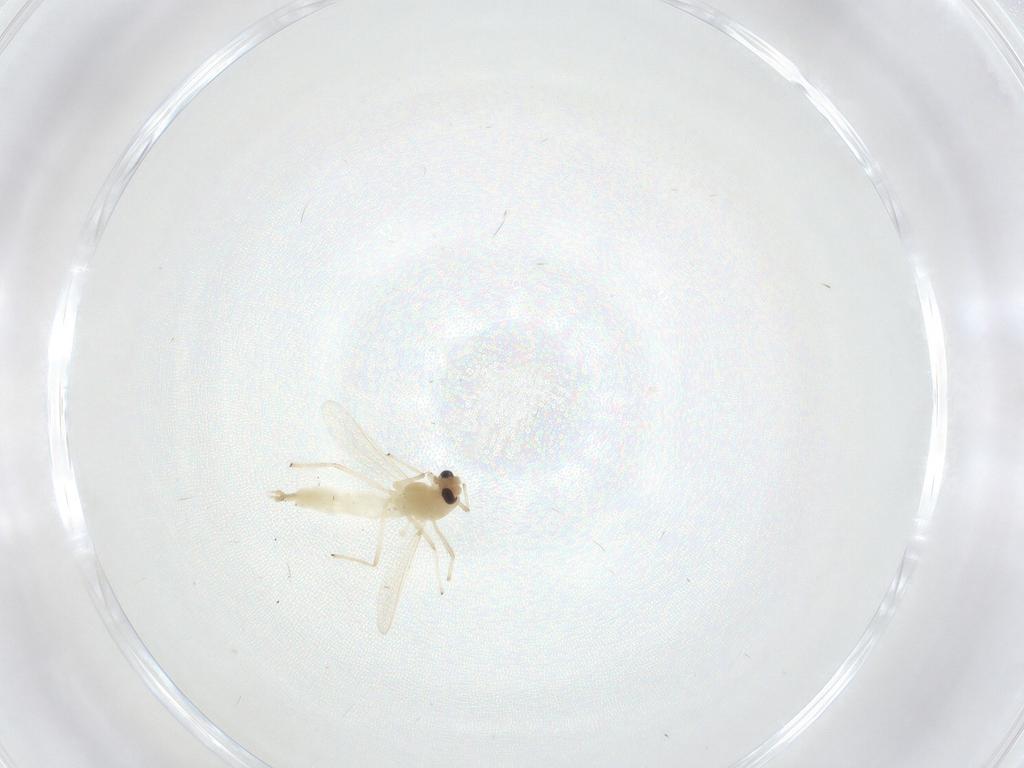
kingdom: Animalia
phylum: Arthropoda
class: Insecta
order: Diptera
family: Chironomidae
